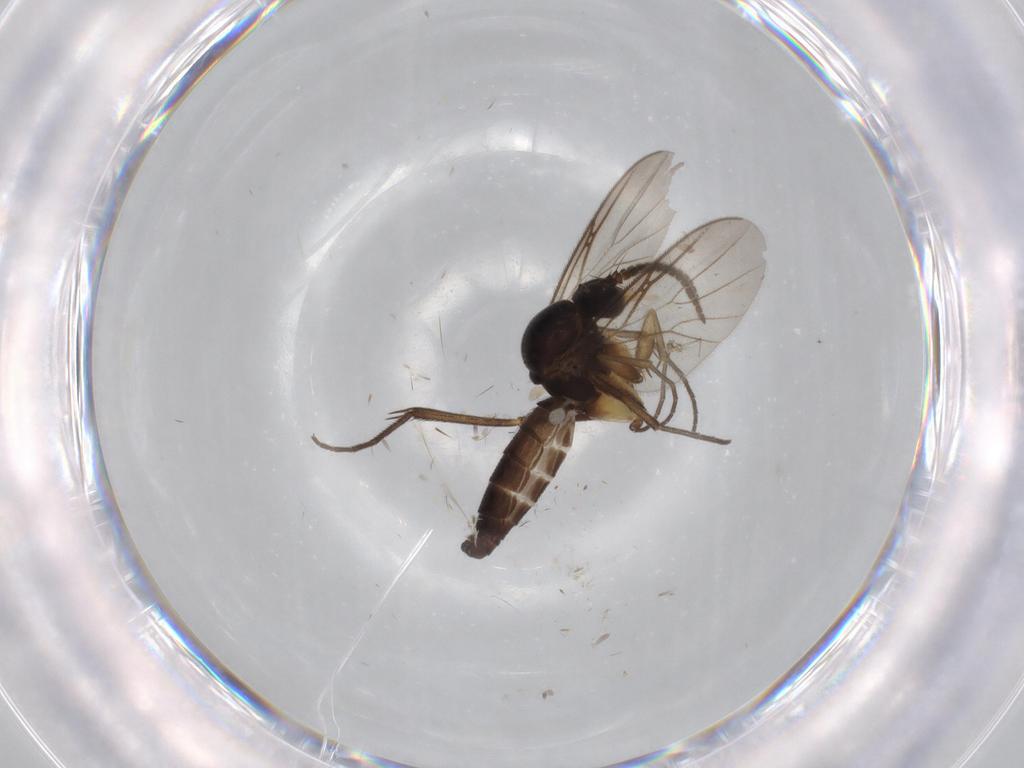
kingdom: Animalia
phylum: Arthropoda
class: Insecta
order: Diptera
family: Mycetophilidae
